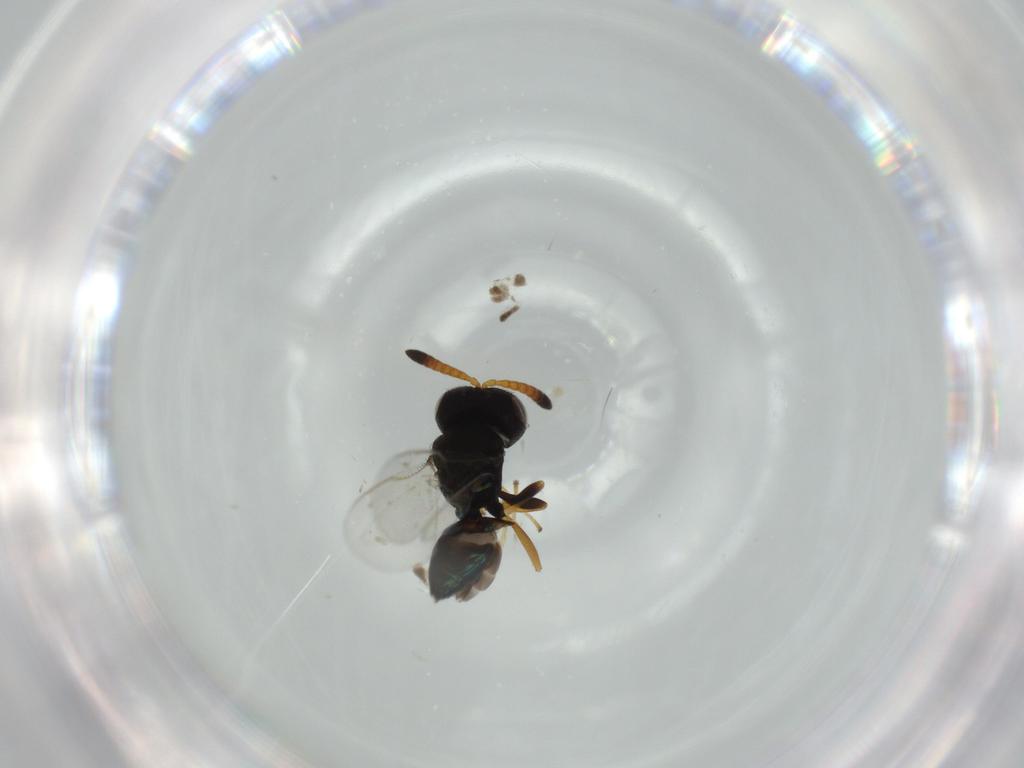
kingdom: Animalia
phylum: Arthropoda
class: Insecta
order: Hymenoptera
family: Pteromalidae
